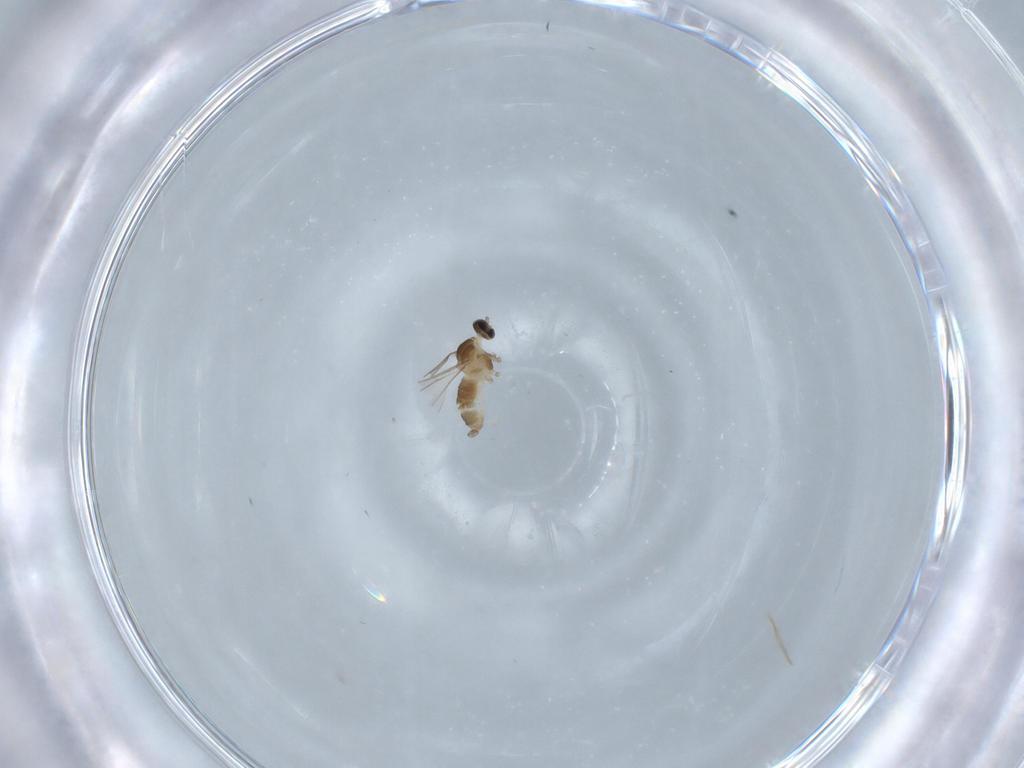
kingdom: Animalia
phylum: Arthropoda
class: Insecta
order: Diptera
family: Cecidomyiidae
